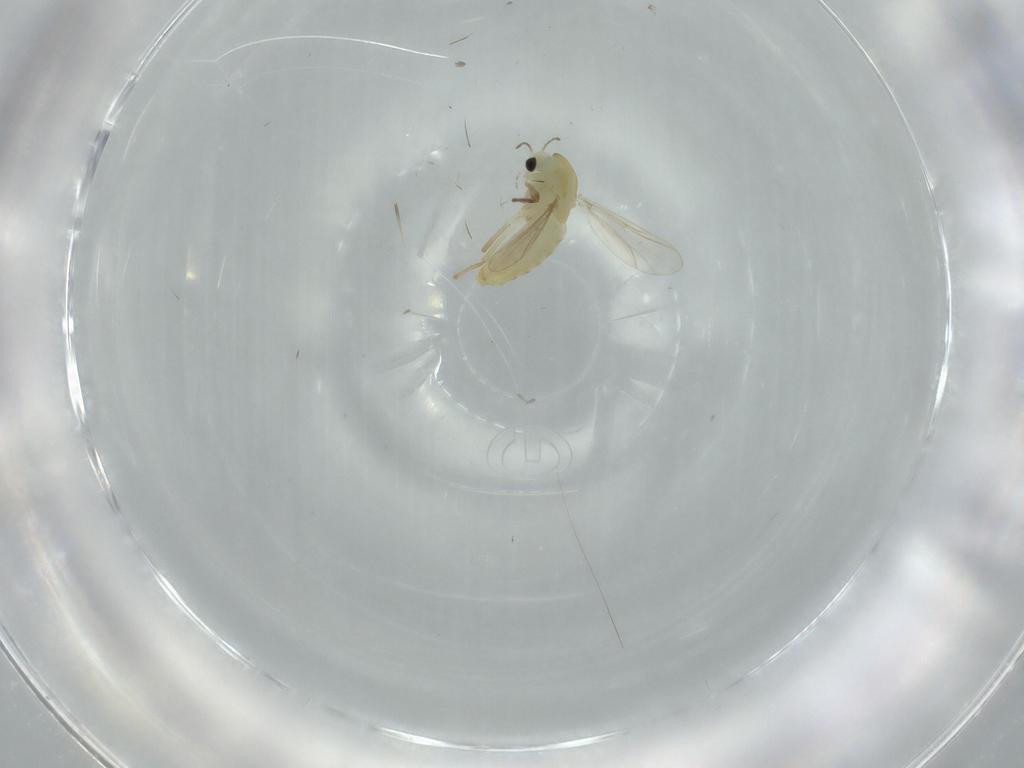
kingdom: Animalia
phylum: Arthropoda
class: Insecta
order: Diptera
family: Chironomidae
